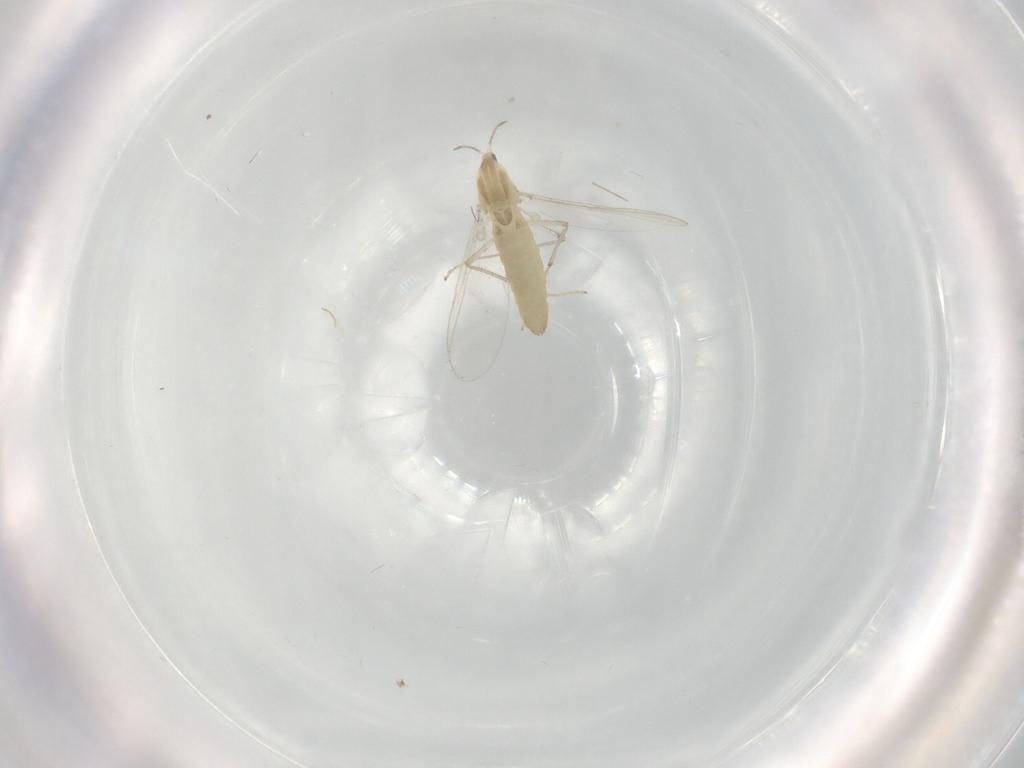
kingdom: Animalia
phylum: Arthropoda
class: Insecta
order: Diptera
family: Chironomidae
